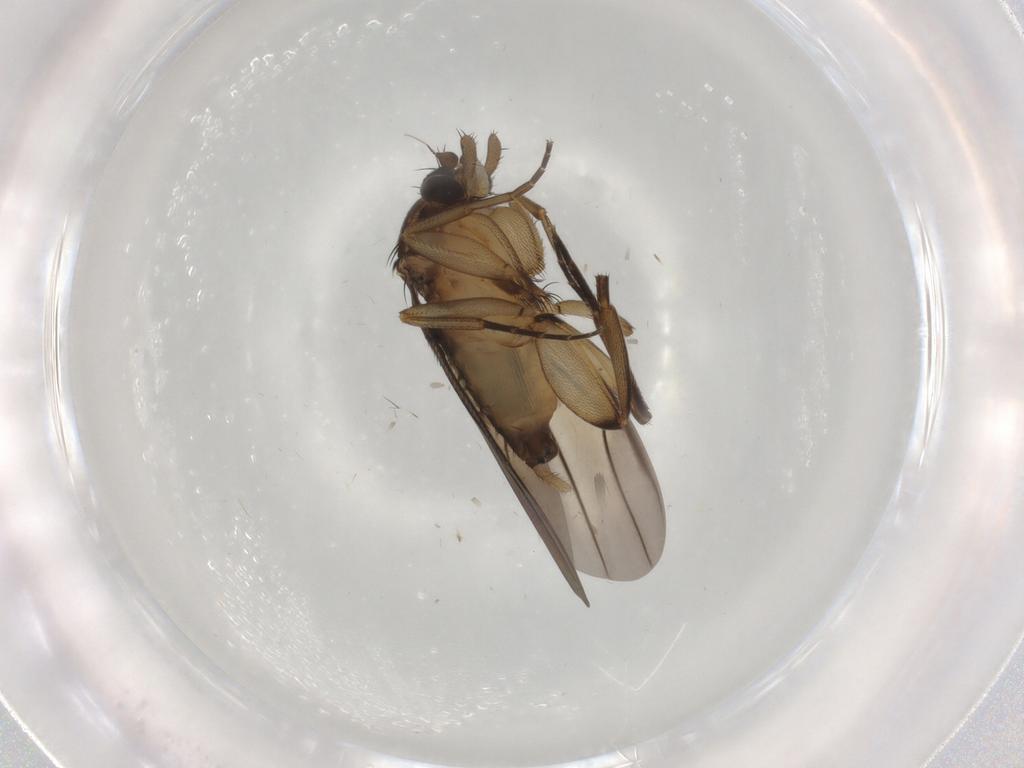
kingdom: Animalia
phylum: Arthropoda
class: Insecta
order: Diptera
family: Phoridae
